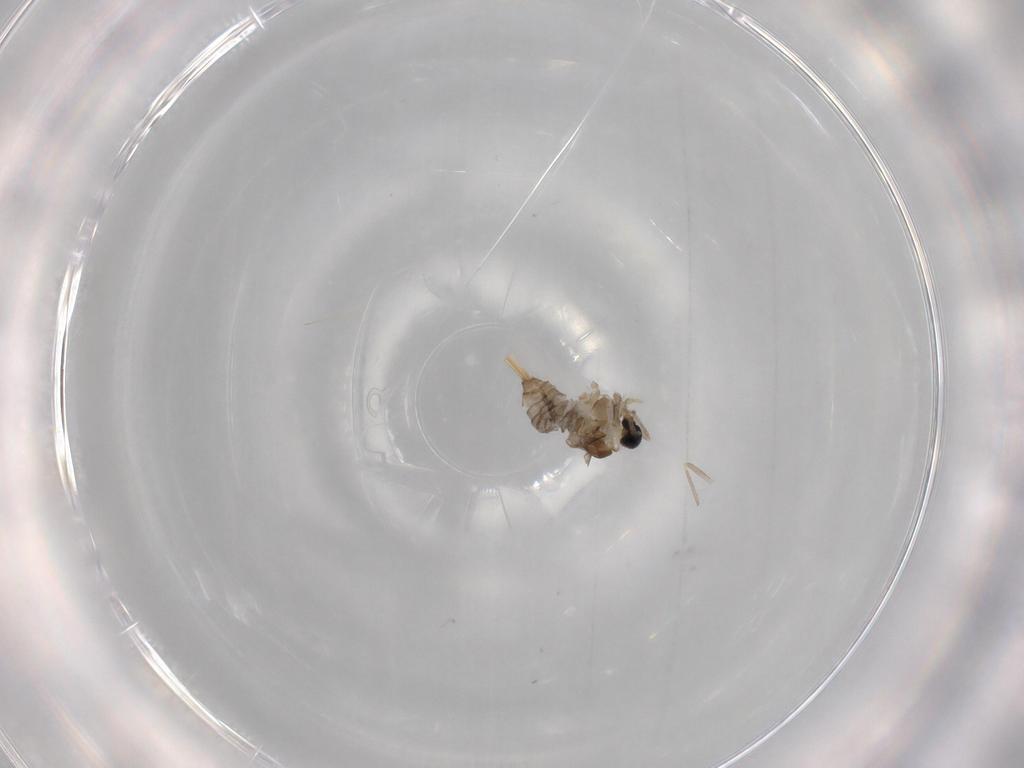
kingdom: Animalia
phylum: Arthropoda
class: Insecta
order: Diptera
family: Cecidomyiidae
